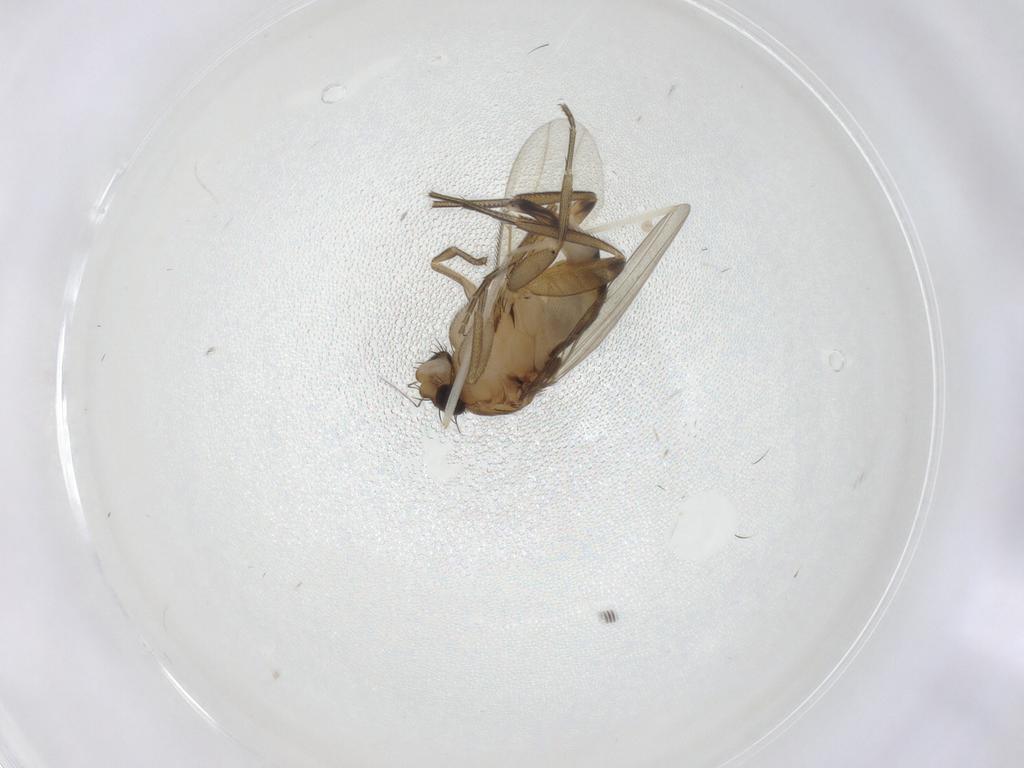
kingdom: Animalia
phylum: Arthropoda
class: Insecta
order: Diptera
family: Phoridae
